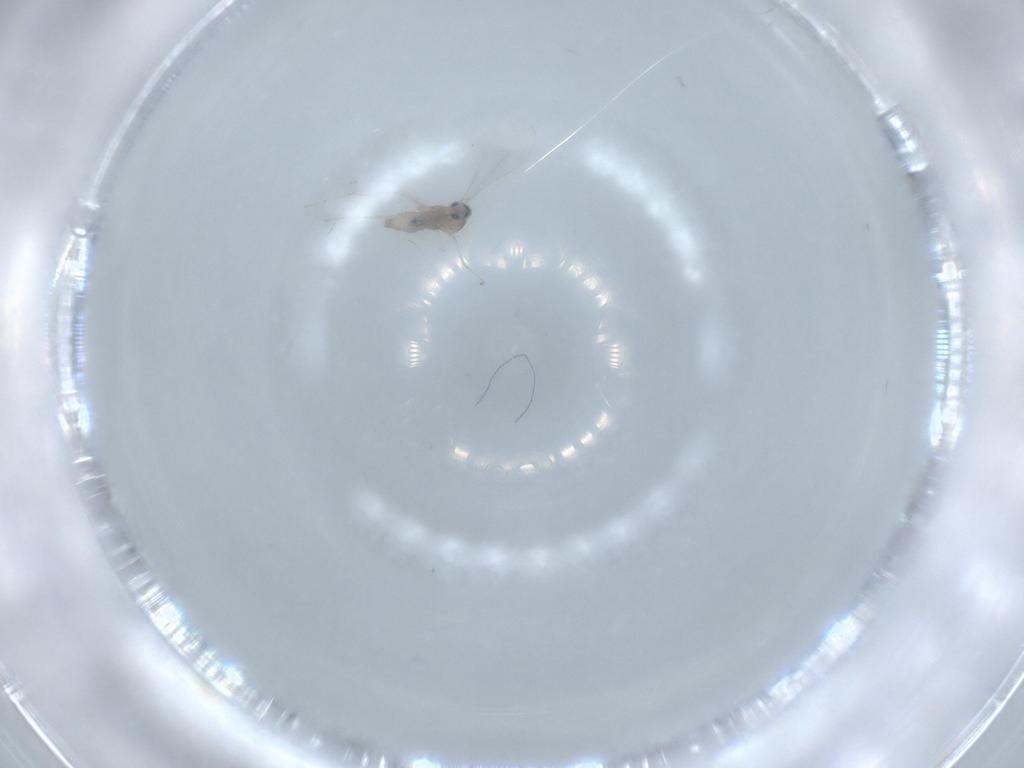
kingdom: Animalia
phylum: Arthropoda
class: Insecta
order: Diptera
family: Cecidomyiidae
